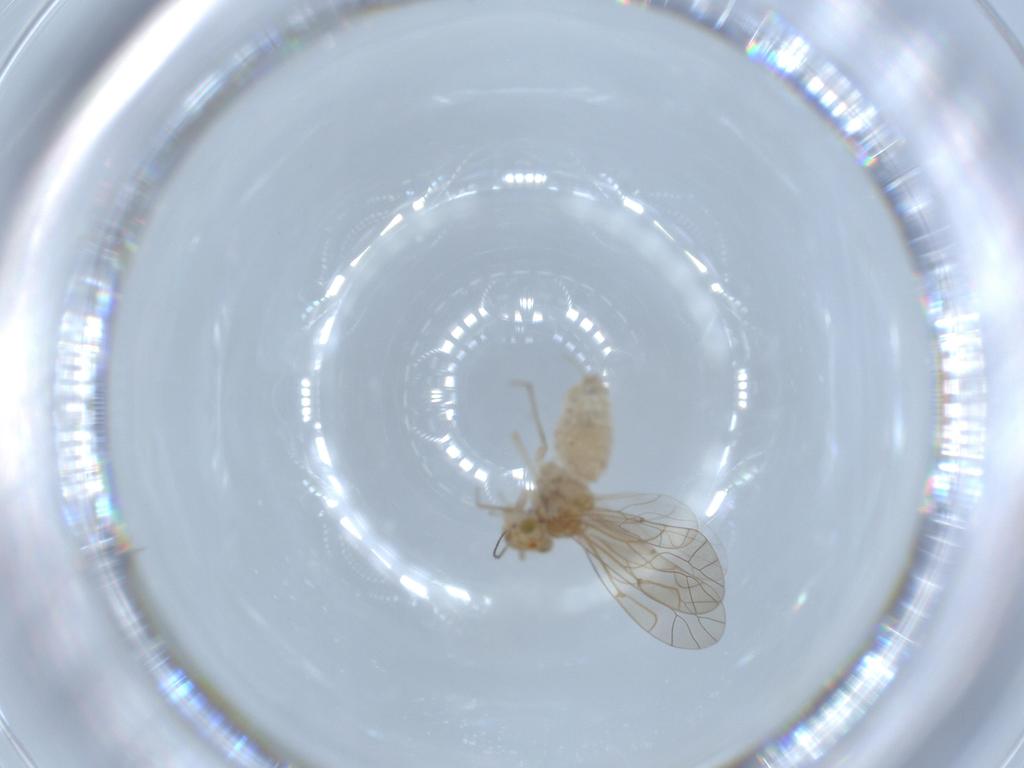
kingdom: Animalia
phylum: Arthropoda
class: Insecta
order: Psocodea
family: Lachesillidae
